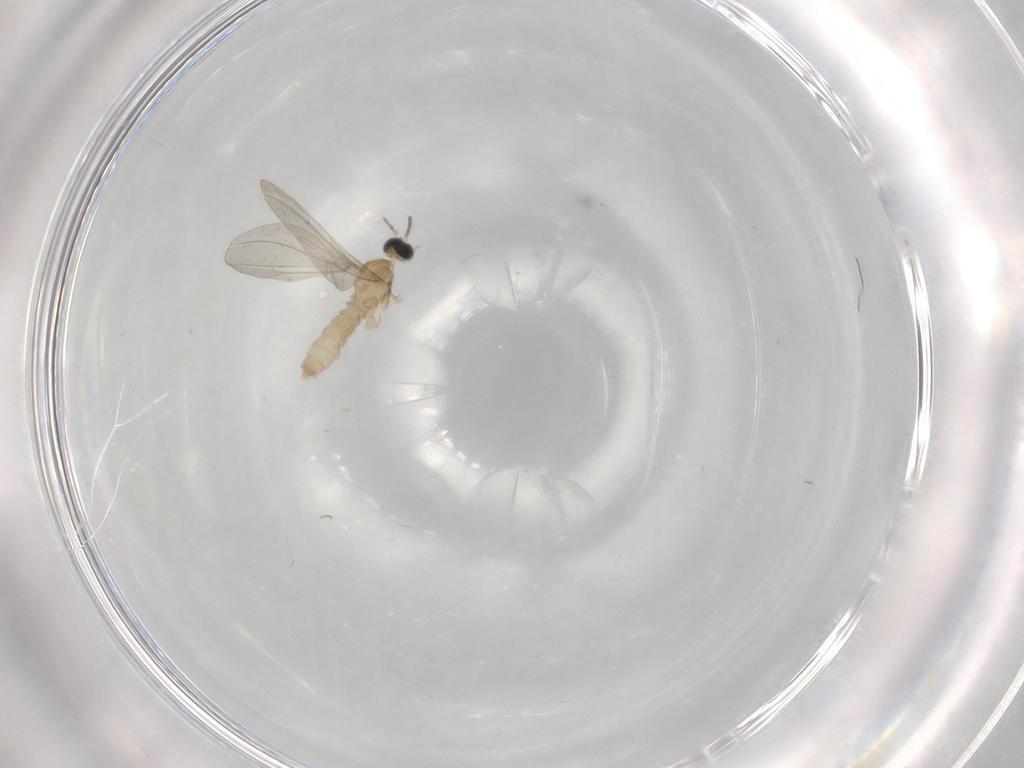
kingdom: Animalia
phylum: Arthropoda
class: Insecta
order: Diptera
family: Cecidomyiidae
